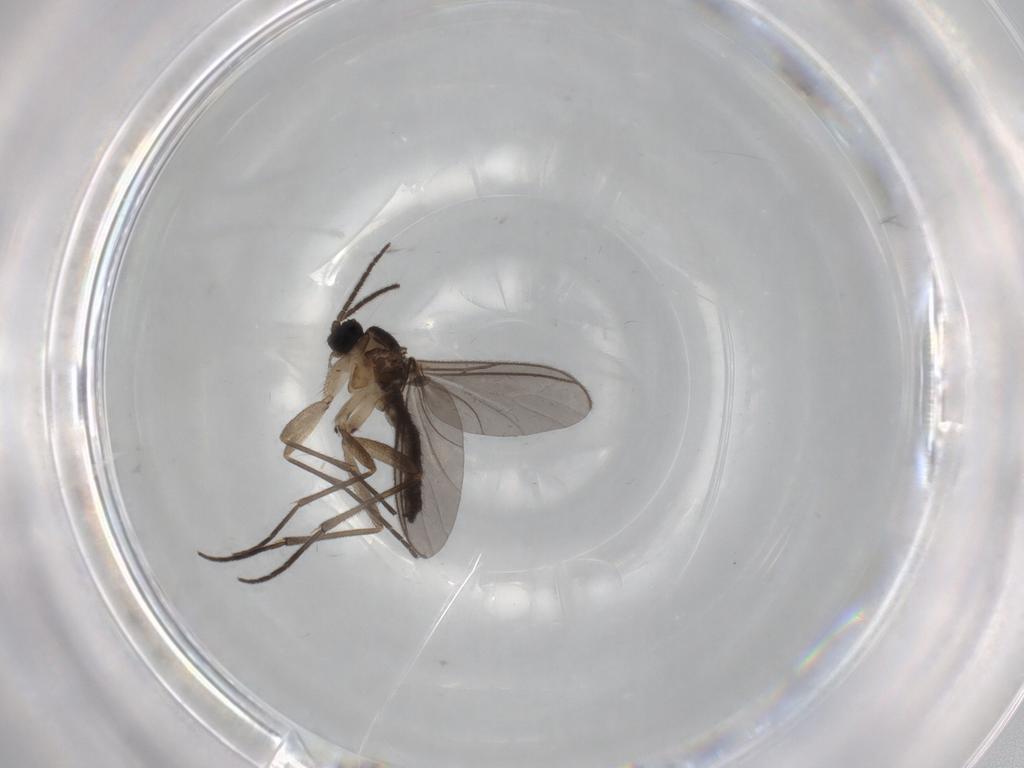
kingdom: Animalia
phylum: Arthropoda
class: Insecta
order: Diptera
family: Sciaridae
